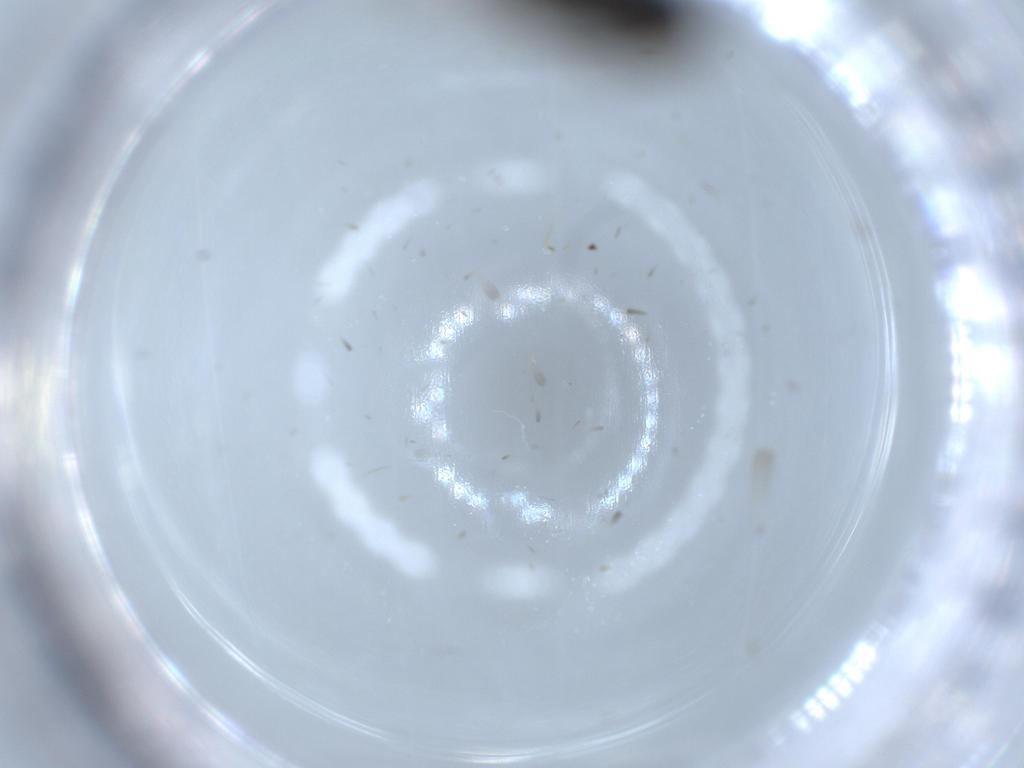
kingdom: Animalia
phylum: Arthropoda
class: Insecta
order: Coleoptera
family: Corylophidae
